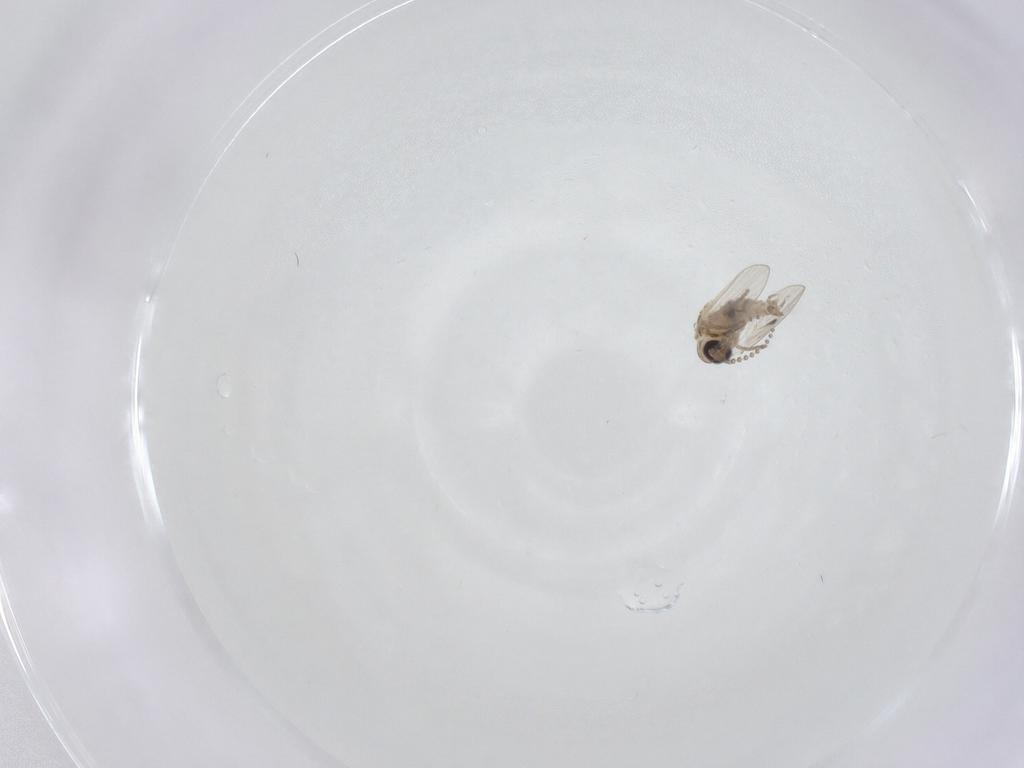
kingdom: Animalia
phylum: Arthropoda
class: Insecta
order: Diptera
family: Psychodidae
